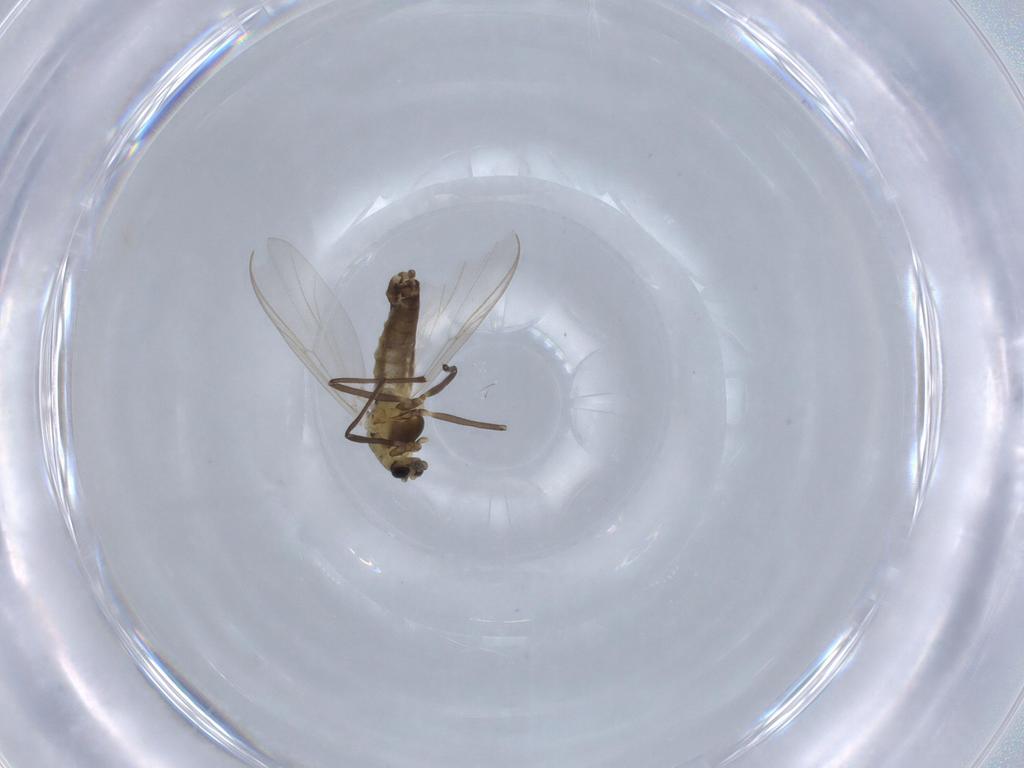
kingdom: Animalia
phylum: Arthropoda
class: Insecta
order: Diptera
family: Chironomidae
